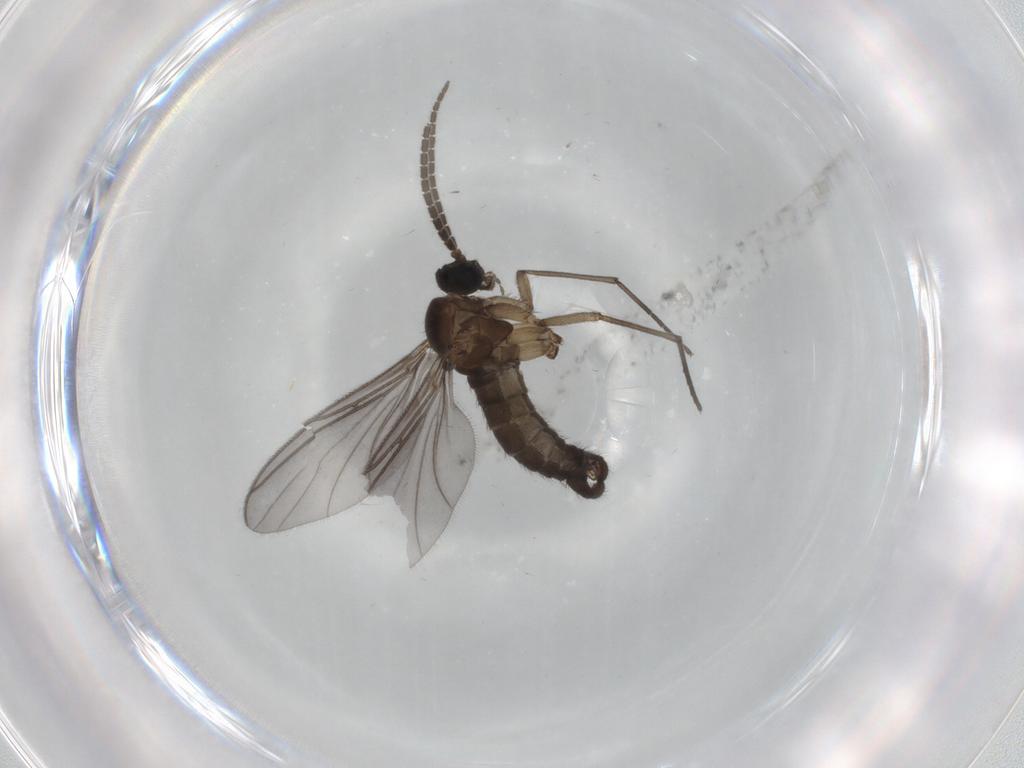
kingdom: Animalia
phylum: Arthropoda
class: Insecta
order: Diptera
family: Sciaridae
